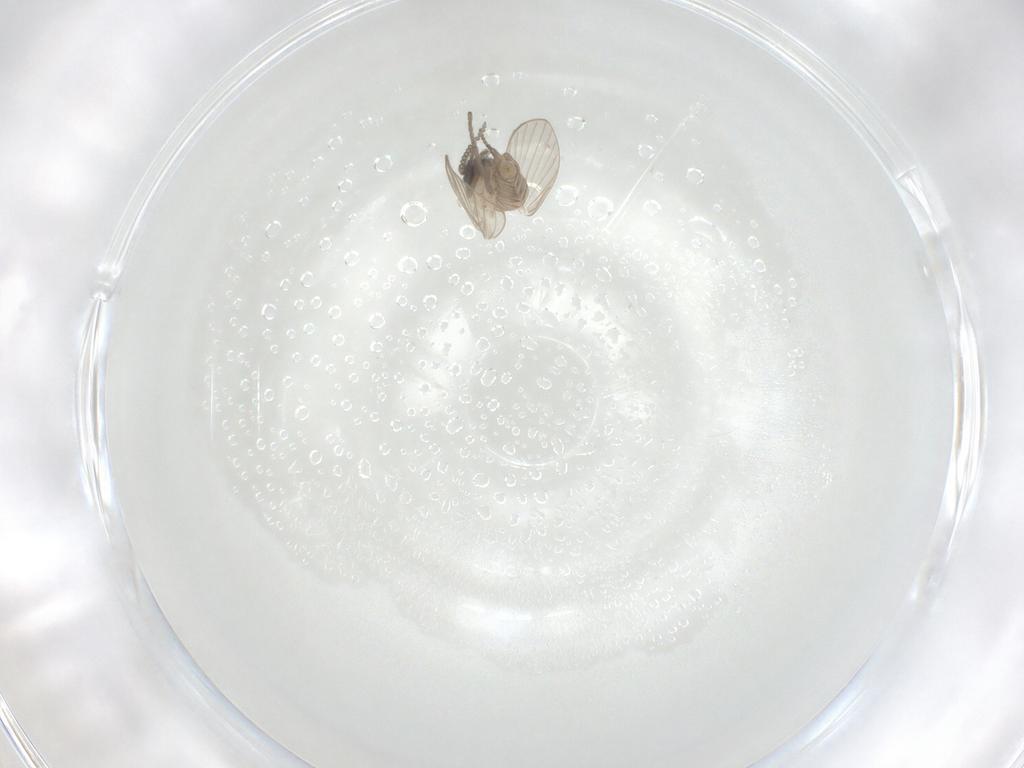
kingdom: Animalia
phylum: Arthropoda
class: Insecta
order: Diptera
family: Psychodidae
